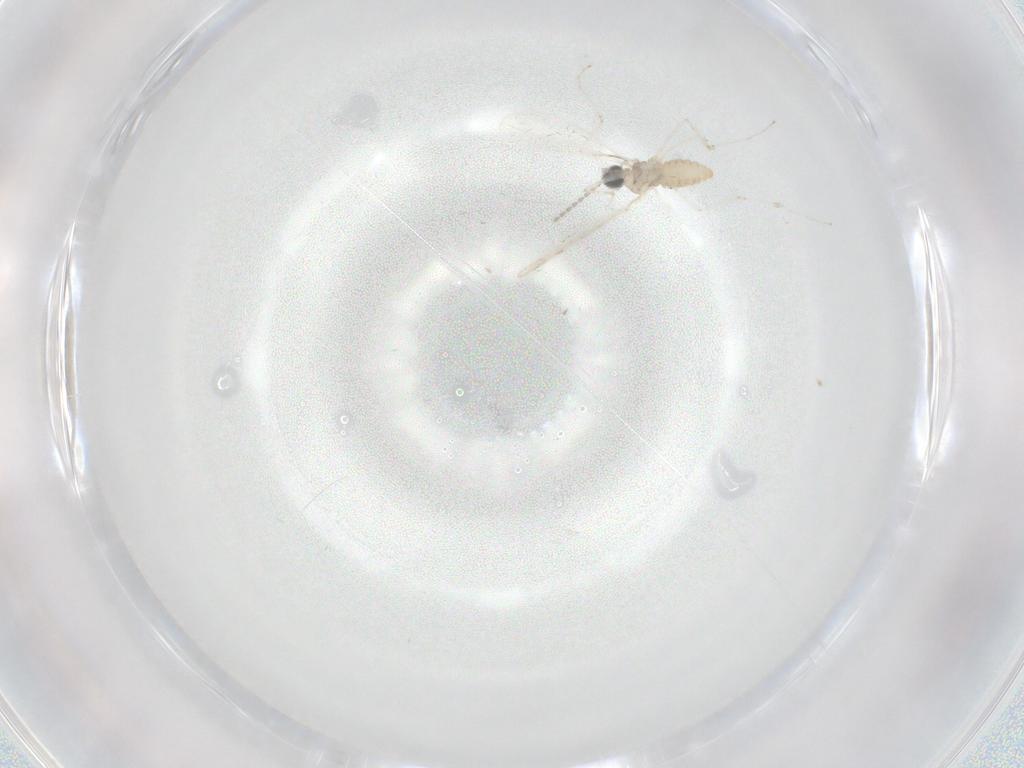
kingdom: Animalia
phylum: Arthropoda
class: Insecta
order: Diptera
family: Cecidomyiidae
